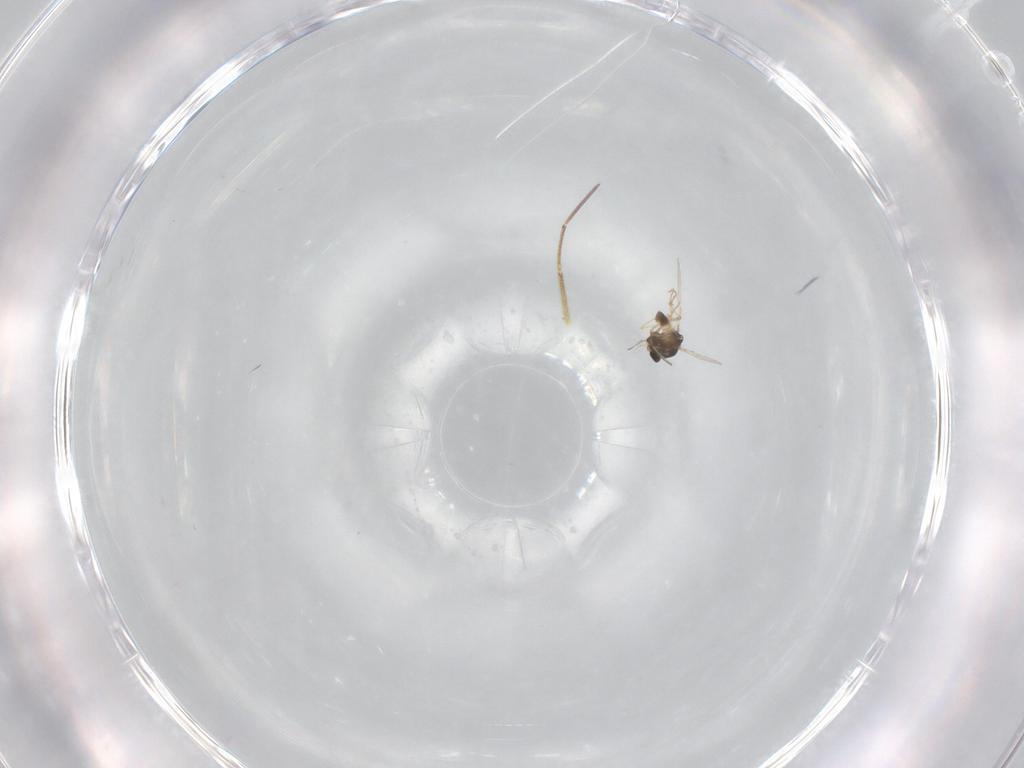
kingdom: Animalia
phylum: Arthropoda
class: Insecta
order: Diptera
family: Chironomidae
